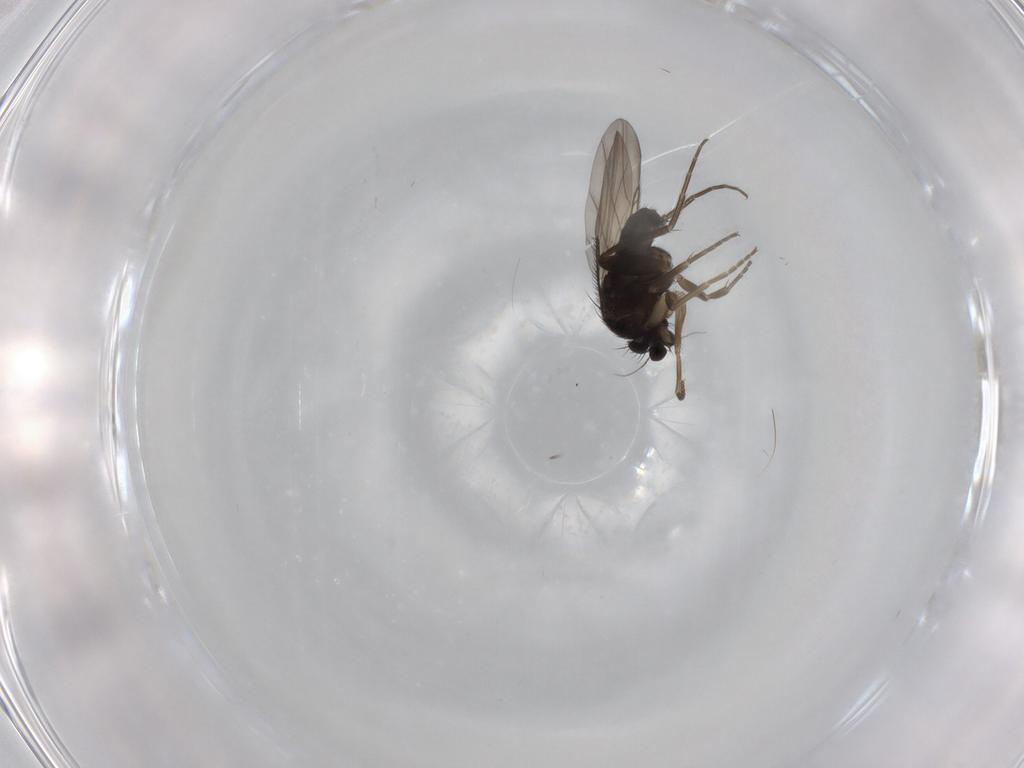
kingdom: Animalia
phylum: Arthropoda
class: Insecta
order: Diptera
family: Phoridae
